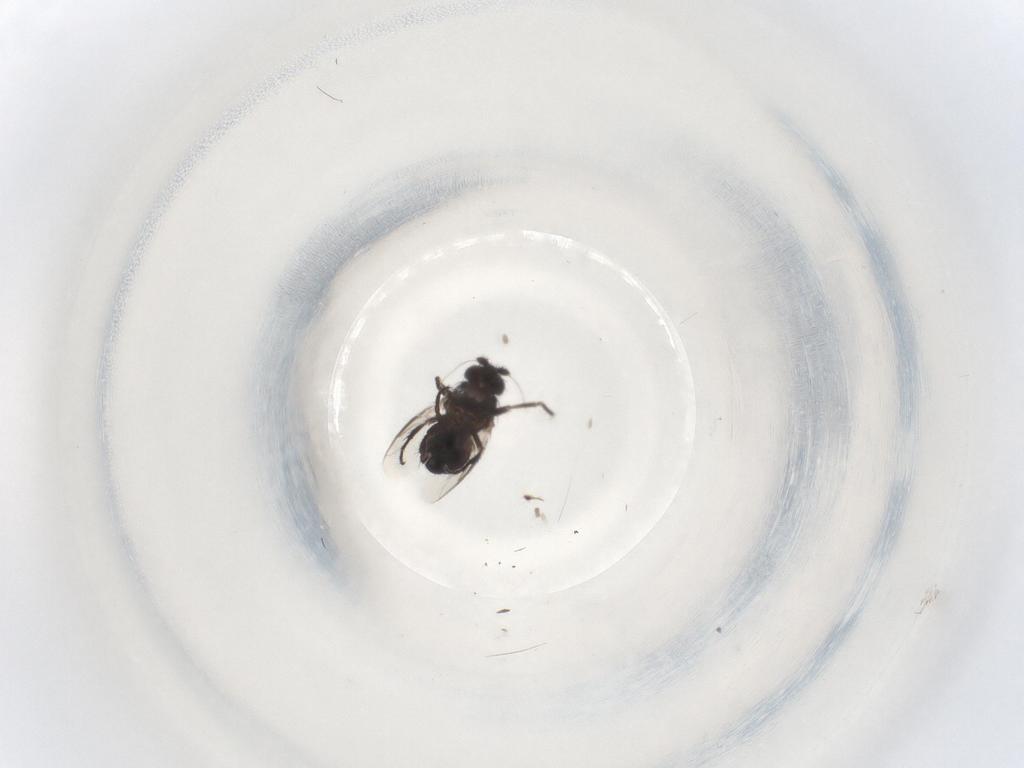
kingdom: Animalia
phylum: Arthropoda
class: Insecta
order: Diptera
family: Sphaeroceridae
